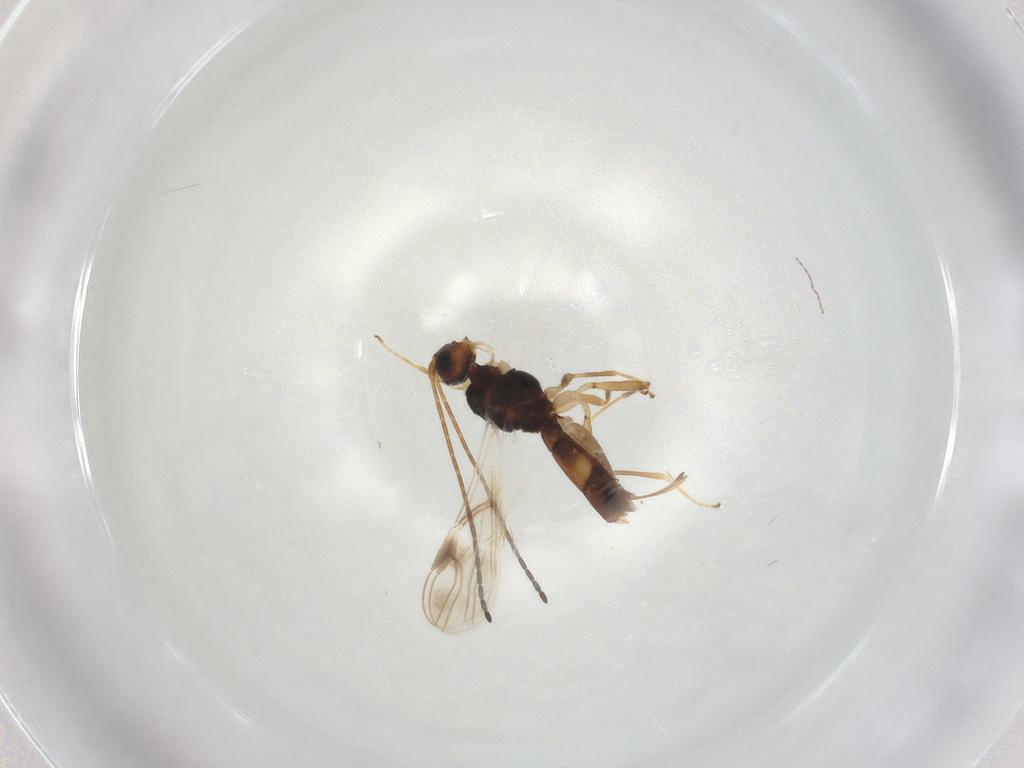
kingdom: Animalia
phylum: Arthropoda
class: Insecta
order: Hymenoptera
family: Braconidae
